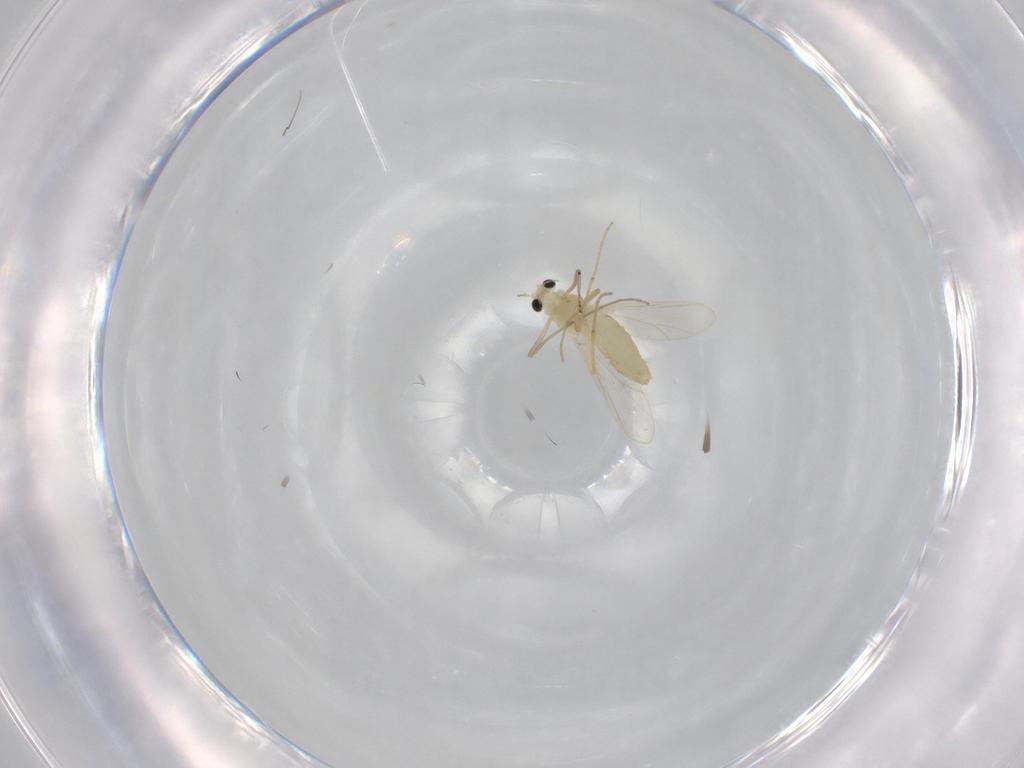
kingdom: Animalia
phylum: Arthropoda
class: Insecta
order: Diptera
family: Chironomidae
